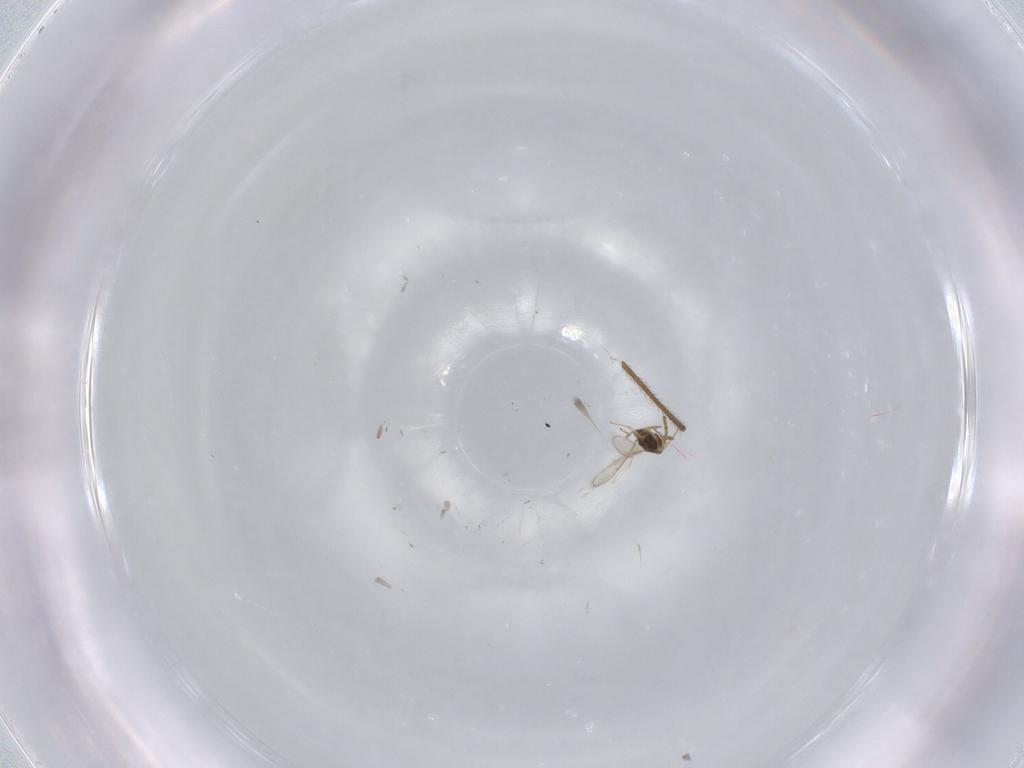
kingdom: Animalia
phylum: Arthropoda
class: Insecta
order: Hymenoptera
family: Aphelinidae
